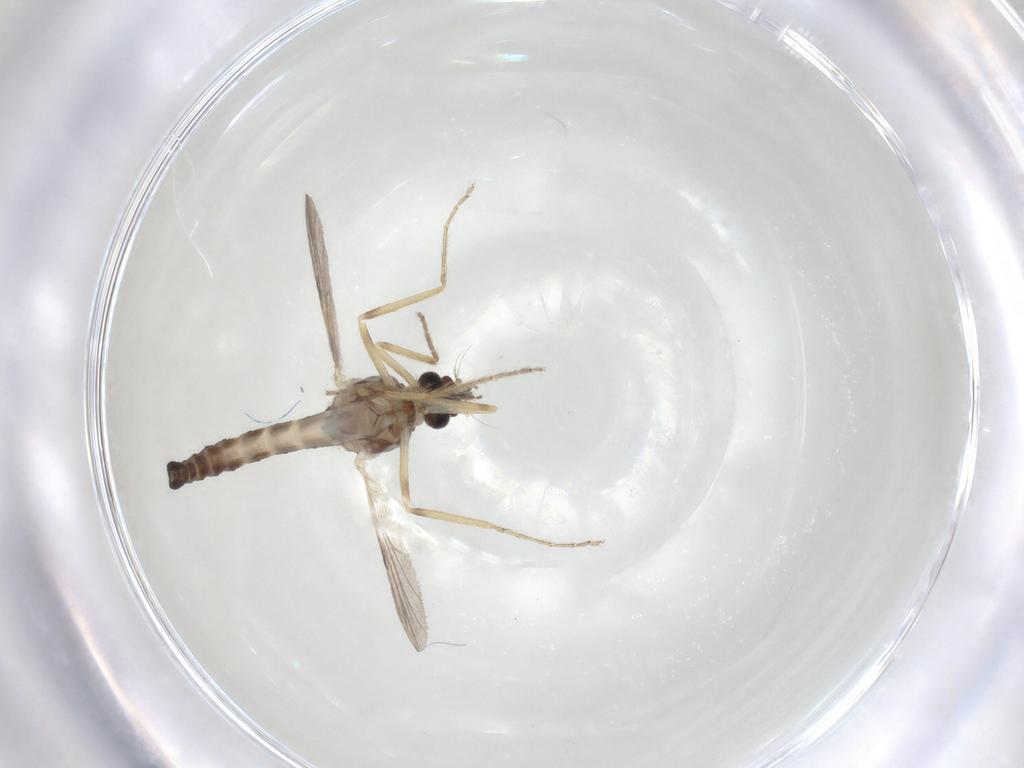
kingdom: Animalia
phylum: Arthropoda
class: Insecta
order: Diptera
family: Ceratopogonidae
